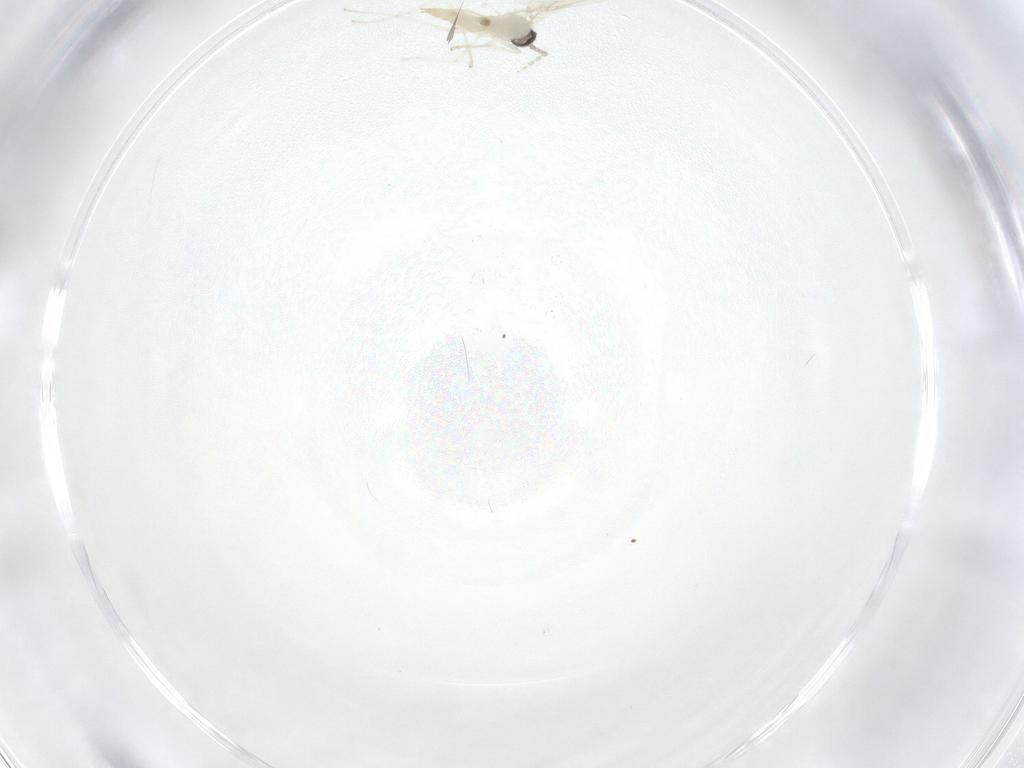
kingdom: Animalia
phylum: Arthropoda
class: Insecta
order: Diptera
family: Cecidomyiidae
